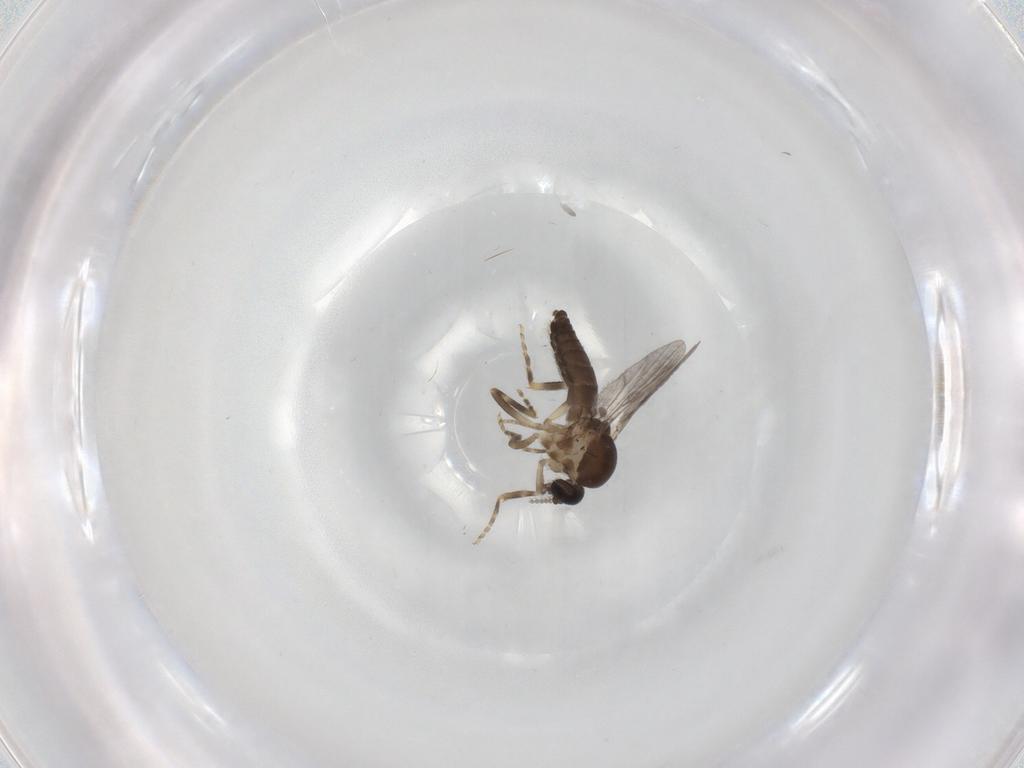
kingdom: Animalia
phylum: Arthropoda
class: Insecta
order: Diptera
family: Ceratopogonidae
